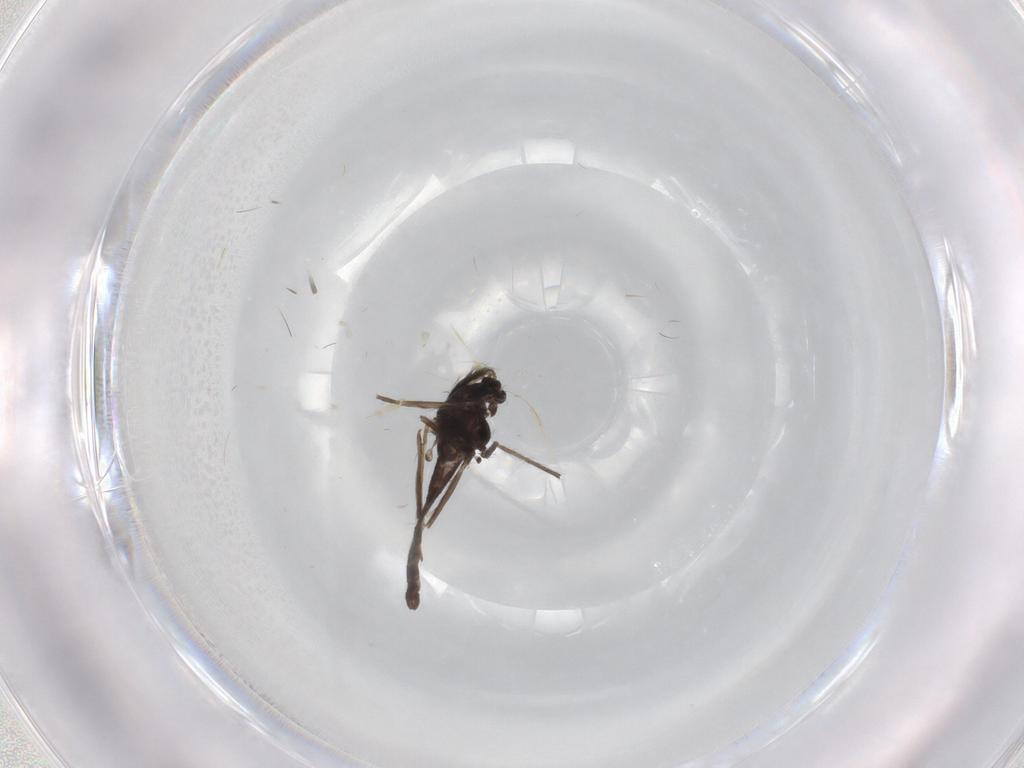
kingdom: Animalia
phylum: Arthropoda
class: Insecta
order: Diptera
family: Chironomidae
